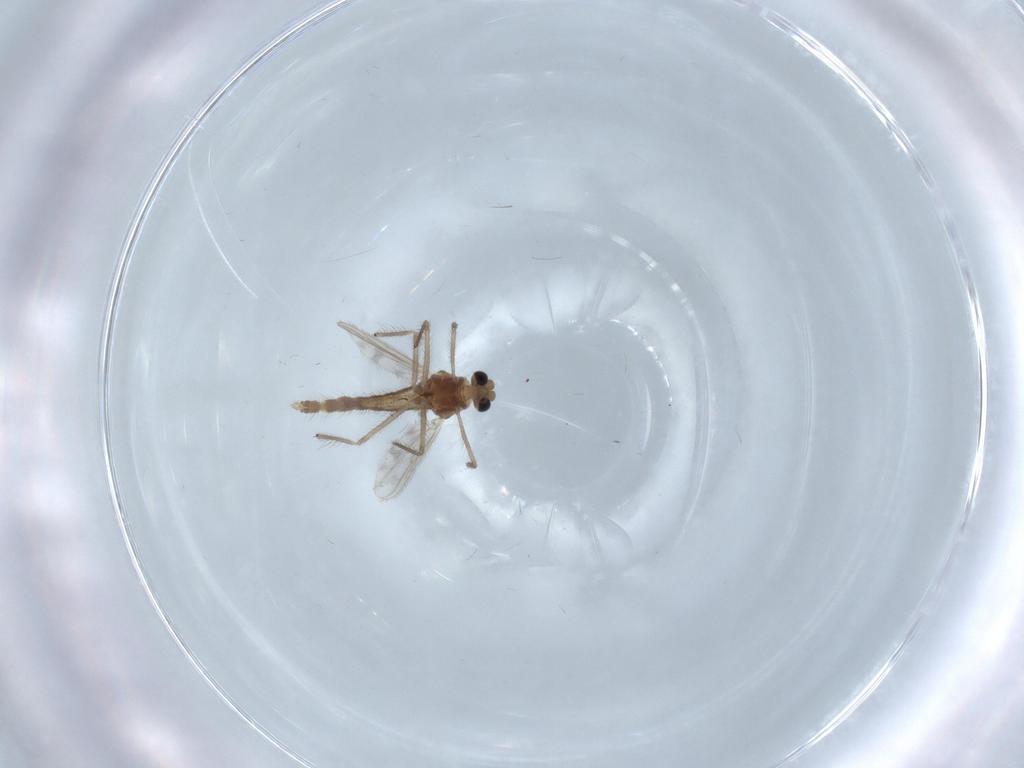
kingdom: Animalia
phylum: Arthropoda
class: Insecta
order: Diptera
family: Chironomidae
